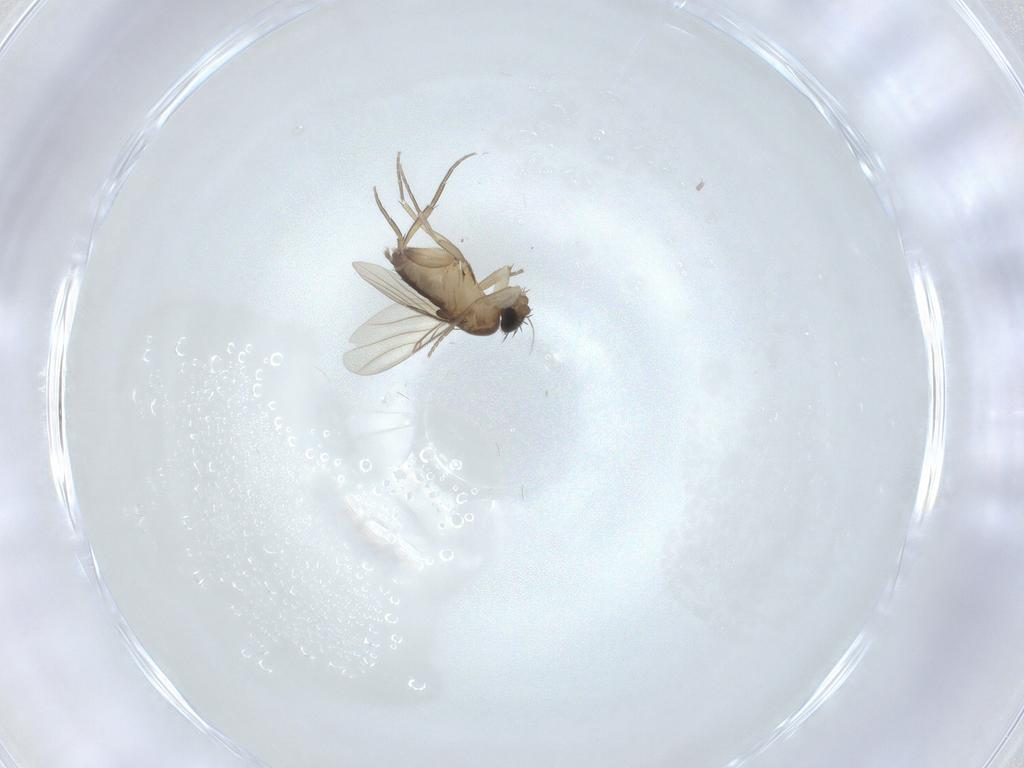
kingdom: Animalia
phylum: Arthropoda
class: Insecta
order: Diptera
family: Phoridae
